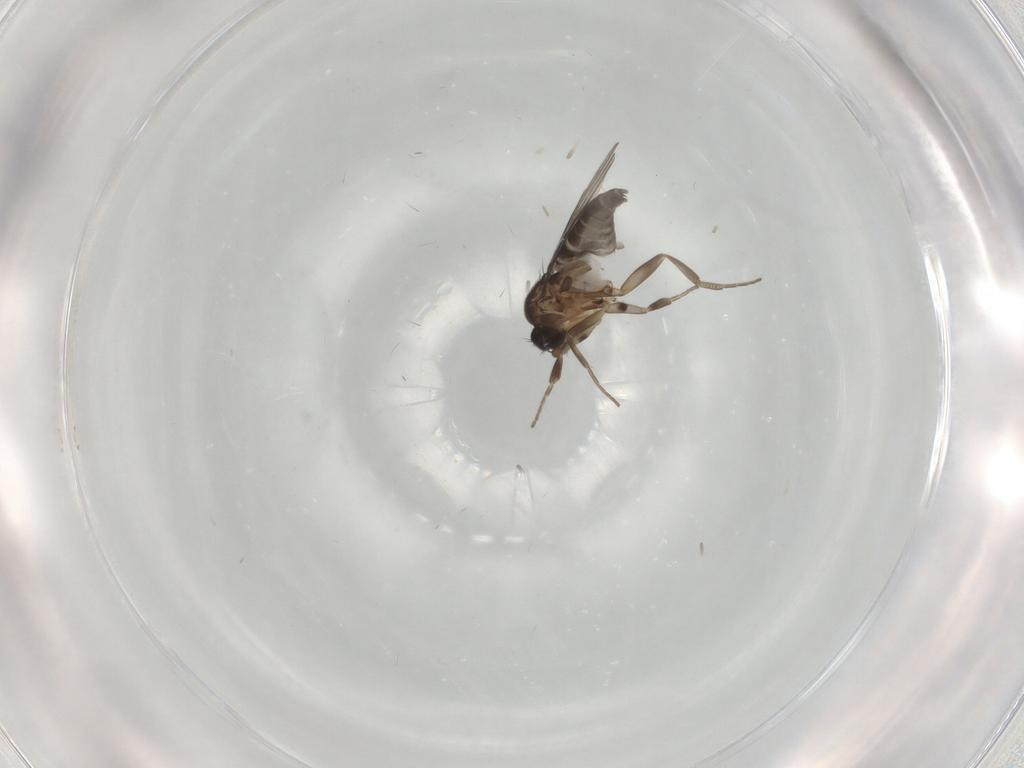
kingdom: Animalia
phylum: Arthropoda
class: Insecta
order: Diptera
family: Phoridae
